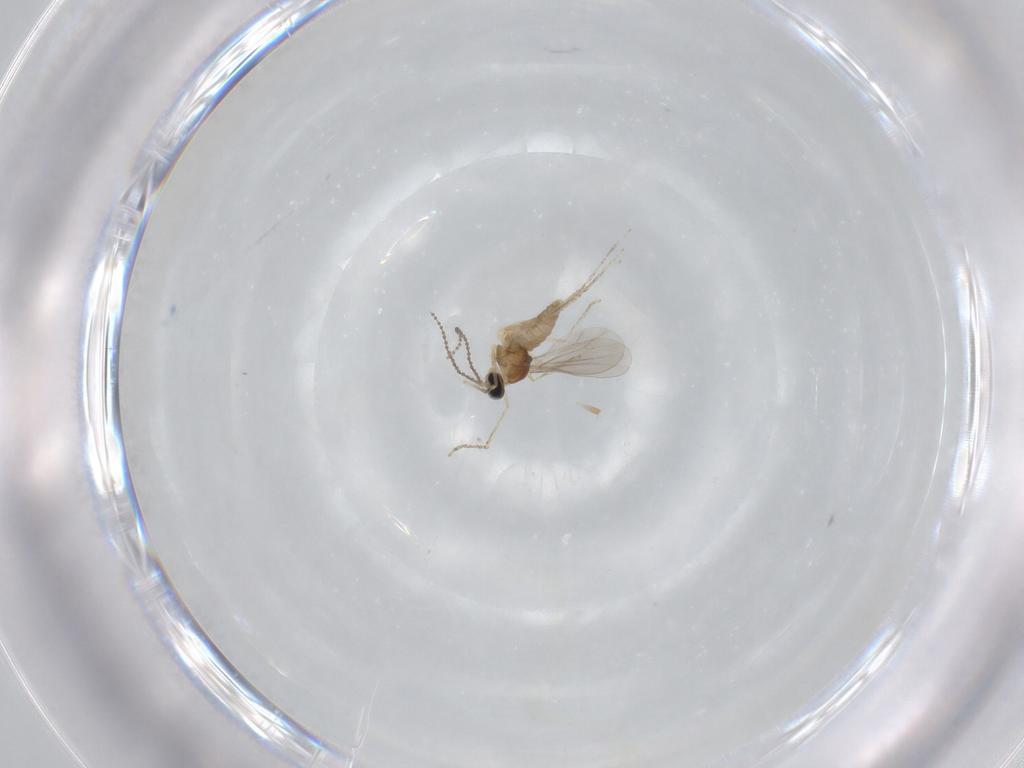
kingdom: Animalia
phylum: Arthropoda
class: Insecta
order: Diptera
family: Cecidomyiidae
